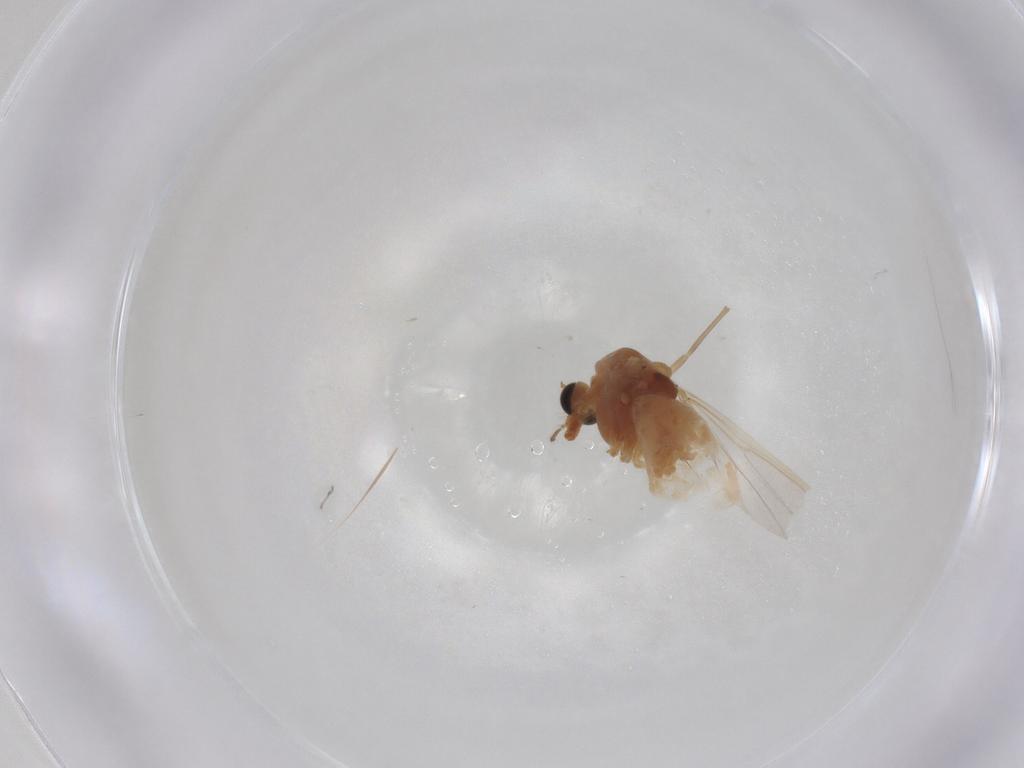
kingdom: Animalia
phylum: Arthropoda
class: Insecta
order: Diptera
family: Chironomidae
